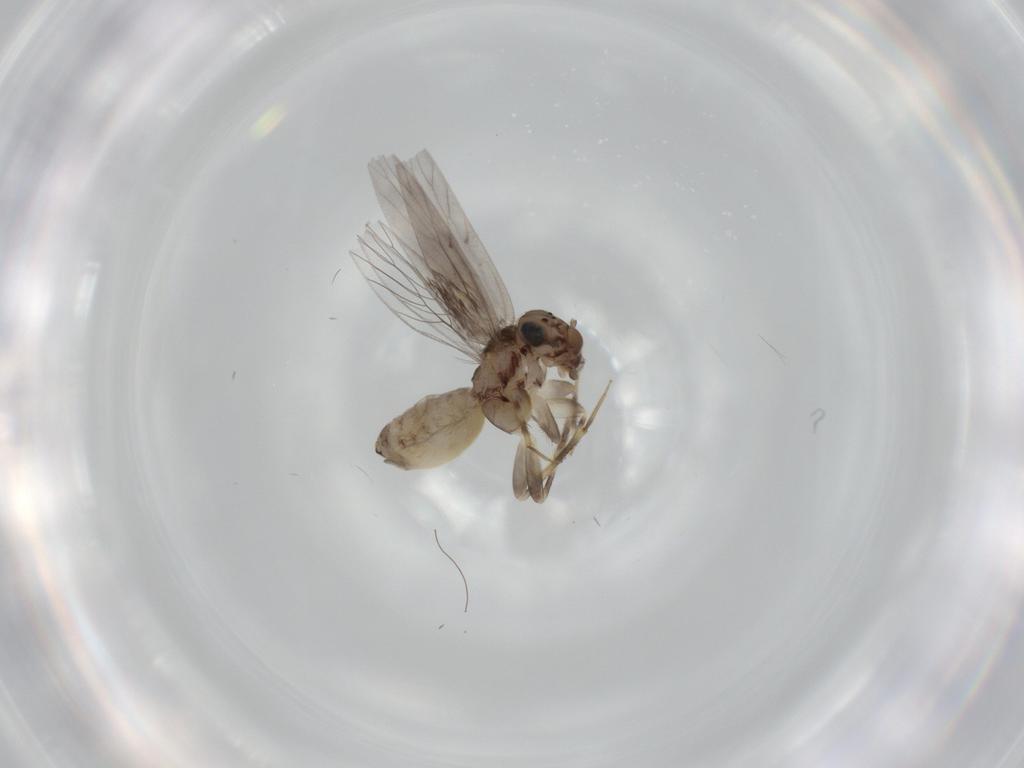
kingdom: Animalia
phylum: Arthropoda
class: Insecta
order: Psocodea
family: Lepidopsocidae
